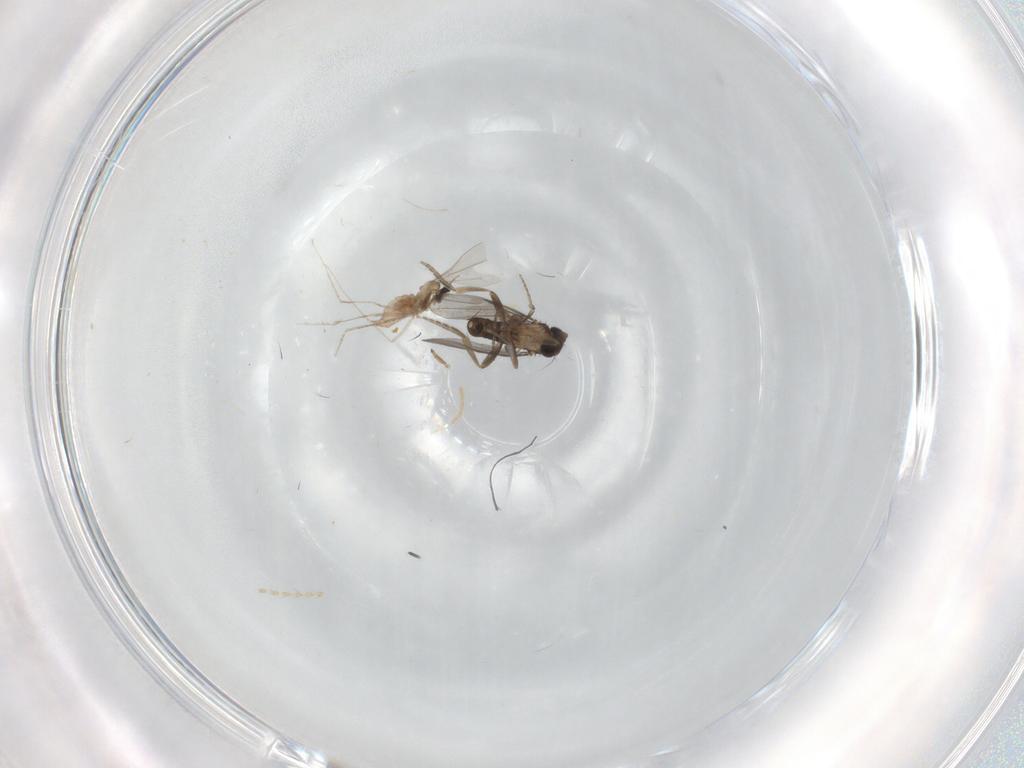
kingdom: Animalia
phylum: Arthropoda
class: Insecta
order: Diptera
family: Cecidomyiidae
